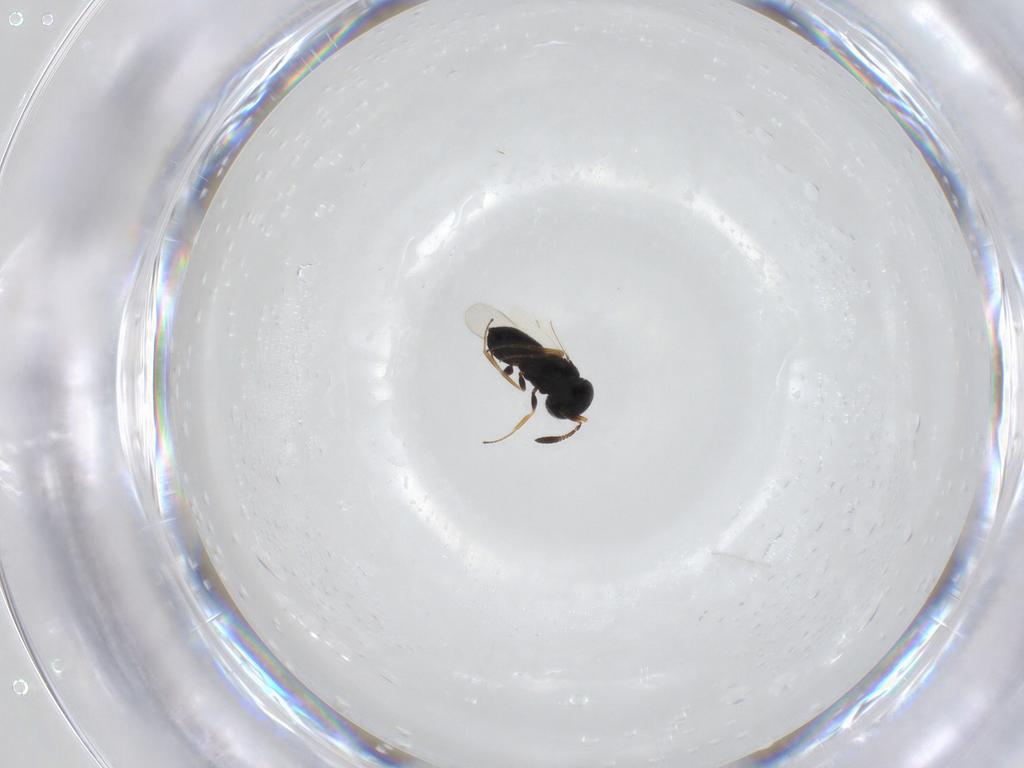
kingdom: Animalia
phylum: Arthropoda
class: Insecta
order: Hymenoptera
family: Scelionidae
